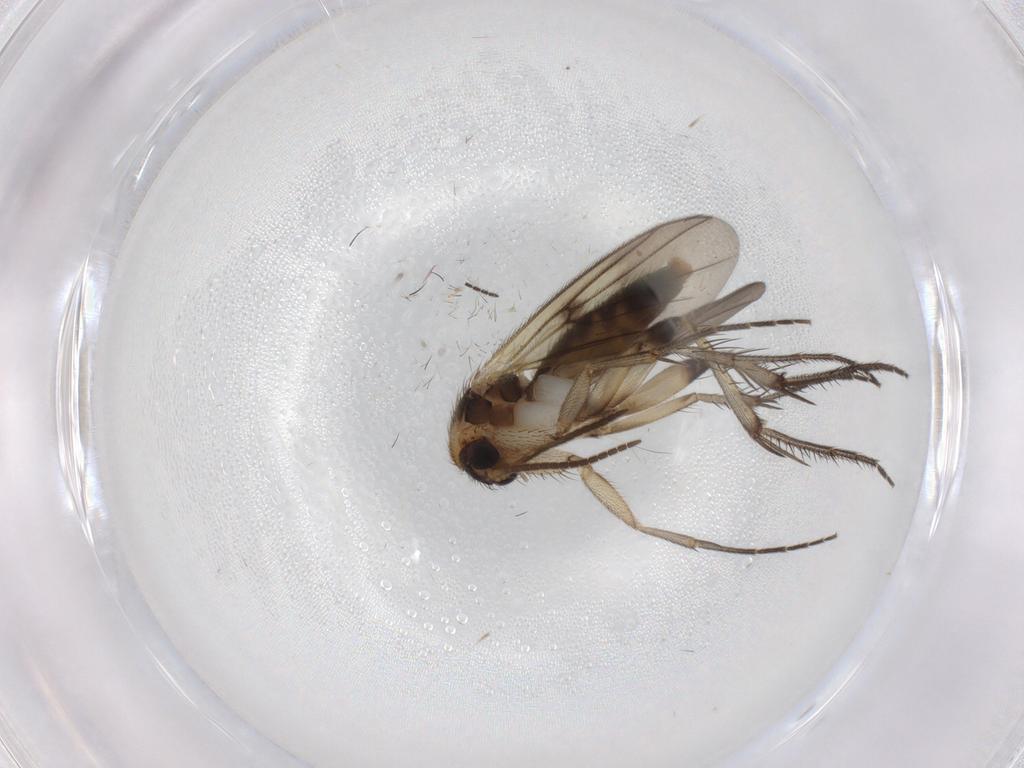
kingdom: Animalia
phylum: Arthropoda
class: Insecta
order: Diptera
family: Mycetophilidae
